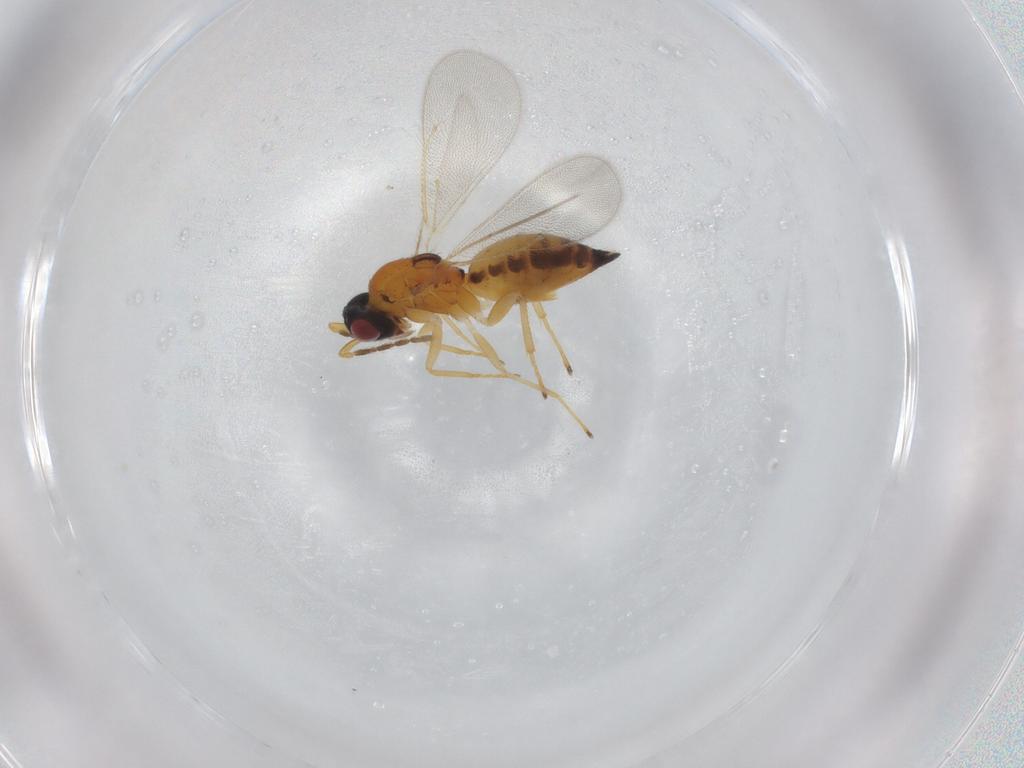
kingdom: Animalia
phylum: Arthropoda
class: Insecta
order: Hymenoptera
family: Eulophidae
